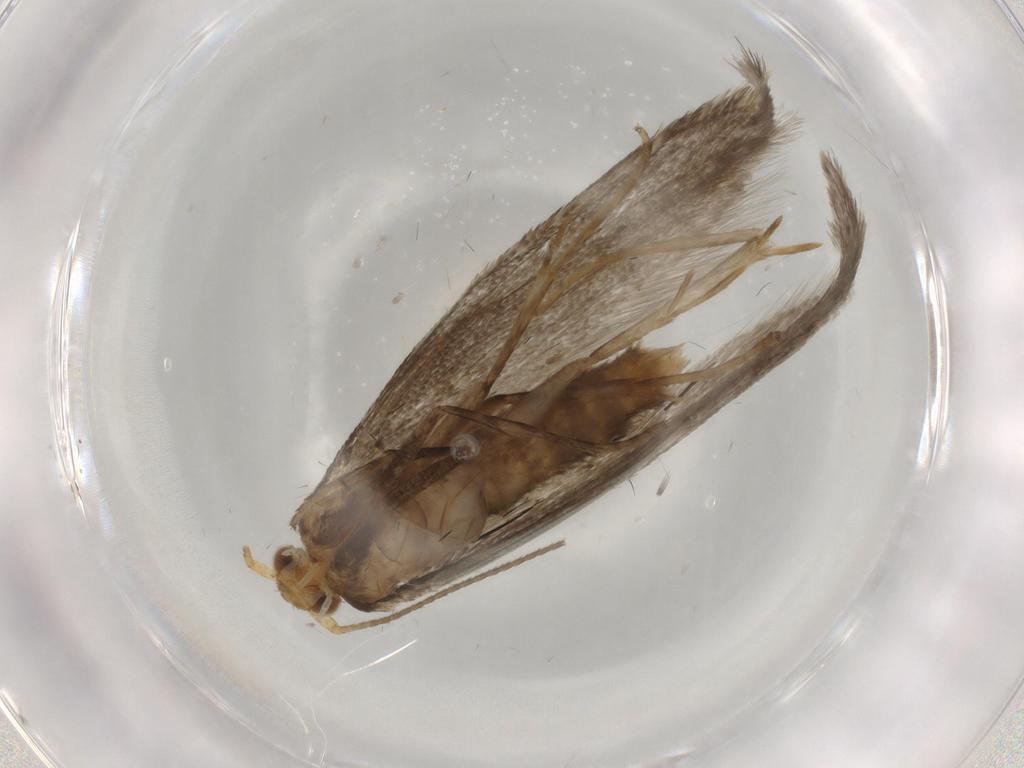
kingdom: Animalia
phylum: Arthropoda
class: Insecta
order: Lepidoptera
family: Argyresthiidae
